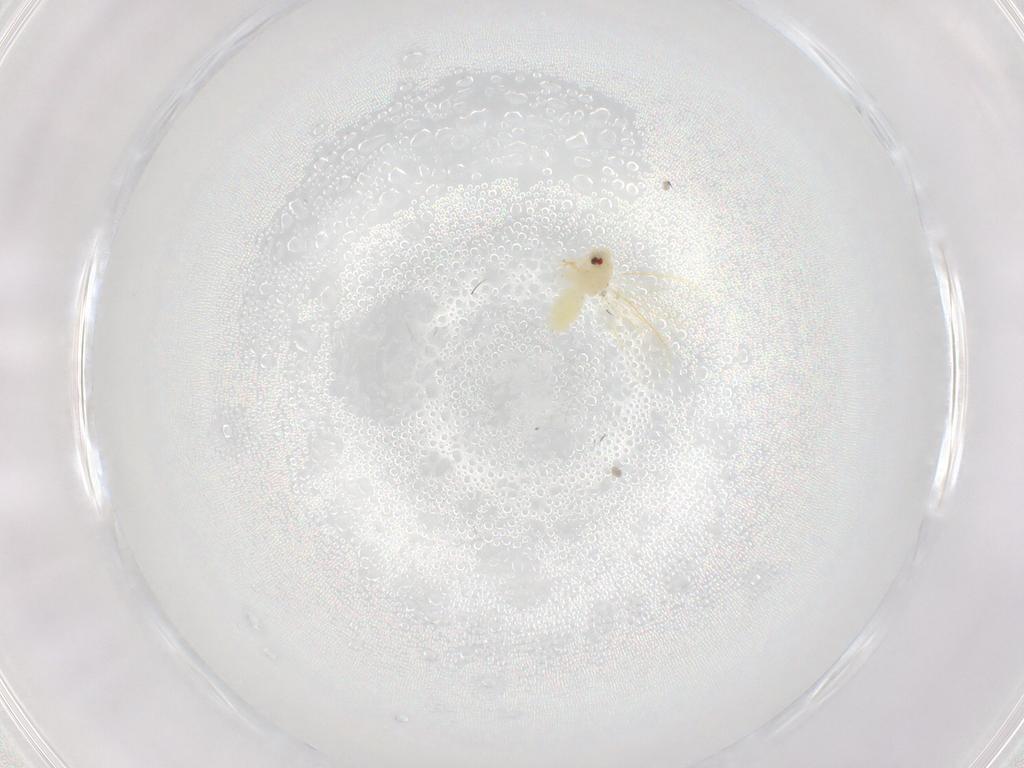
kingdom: Animalia
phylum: Arthropoda
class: Insecta
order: Hemiptera
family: Aleyrodidae
